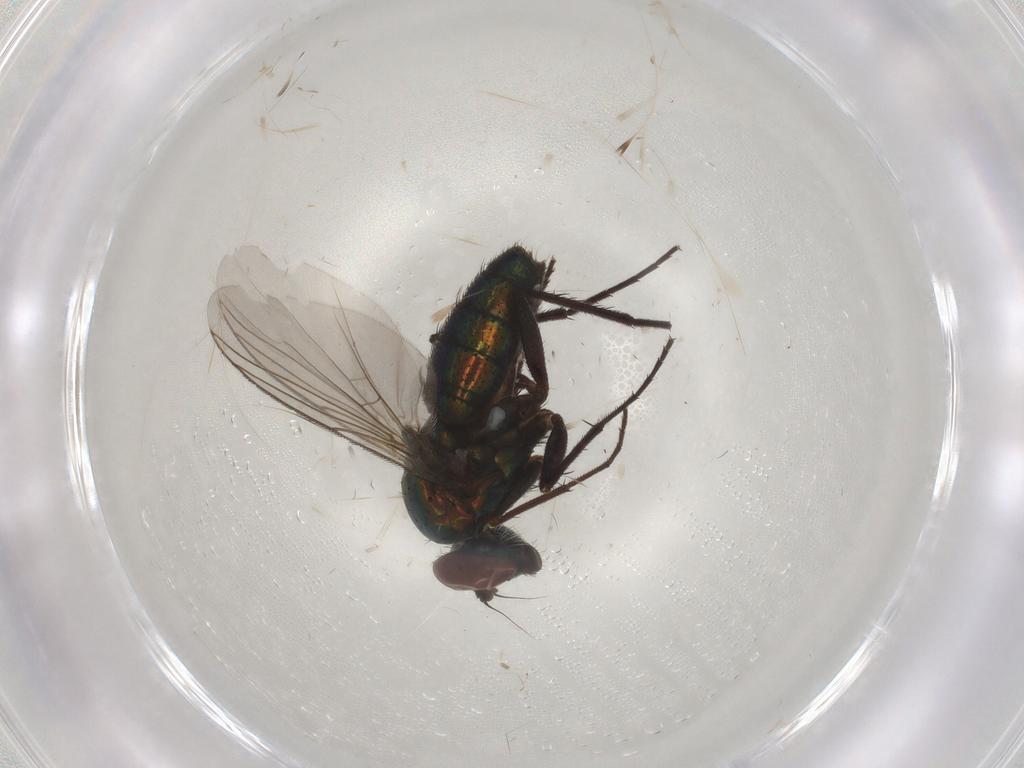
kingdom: Animalia
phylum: Arthropoda
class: Insecta
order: Diptera
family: Dolichopodidae
